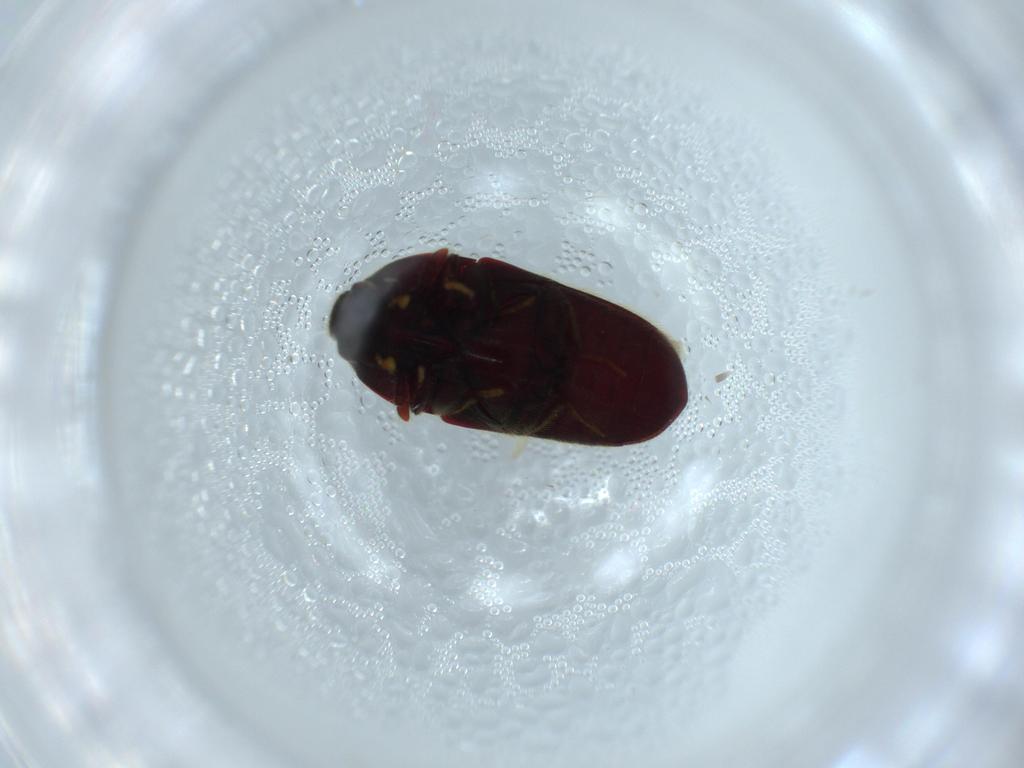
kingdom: Animalia
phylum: Arthropoda
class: Insecta
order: Coleoptera
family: Throscidae
